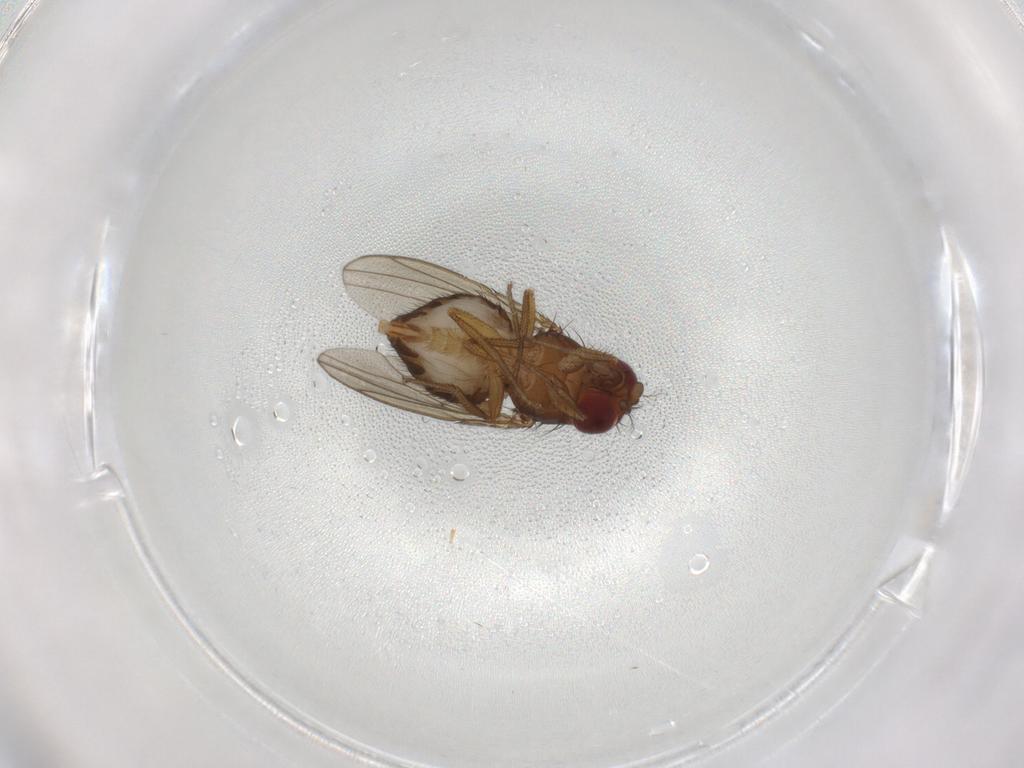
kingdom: Animalia
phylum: Arthropoda
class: Insecta
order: Diptera
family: Drosophilidae
